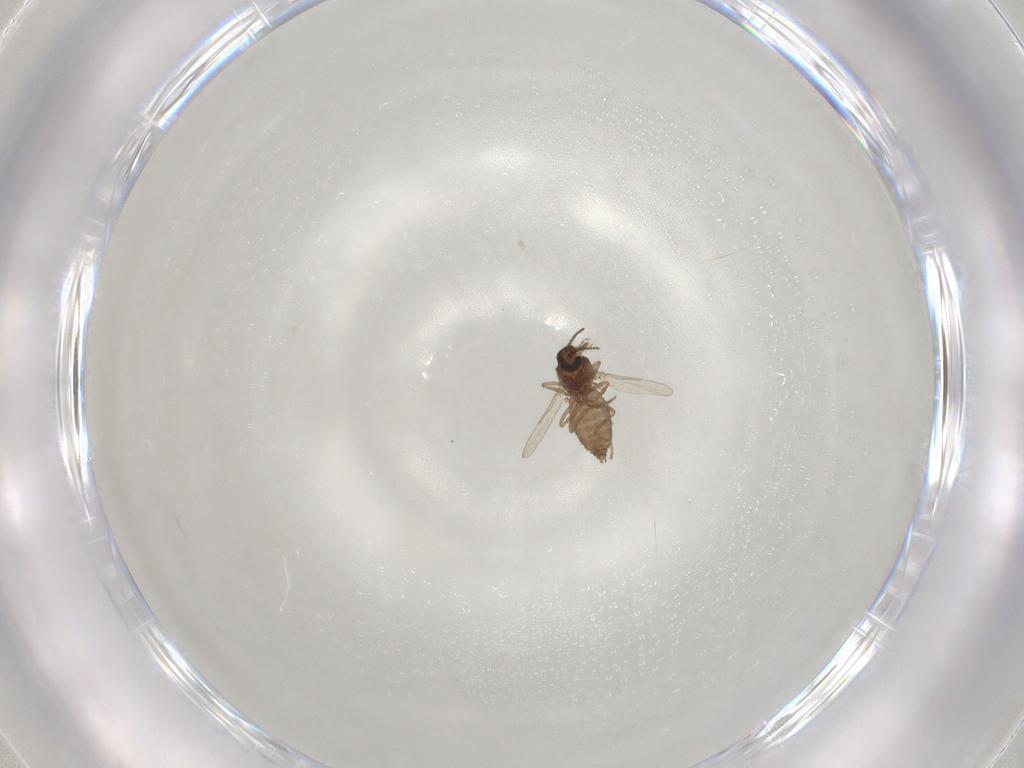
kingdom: Animalia
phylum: Arthropoda
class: Insecta
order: Diptera
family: Ceratopogonidae
